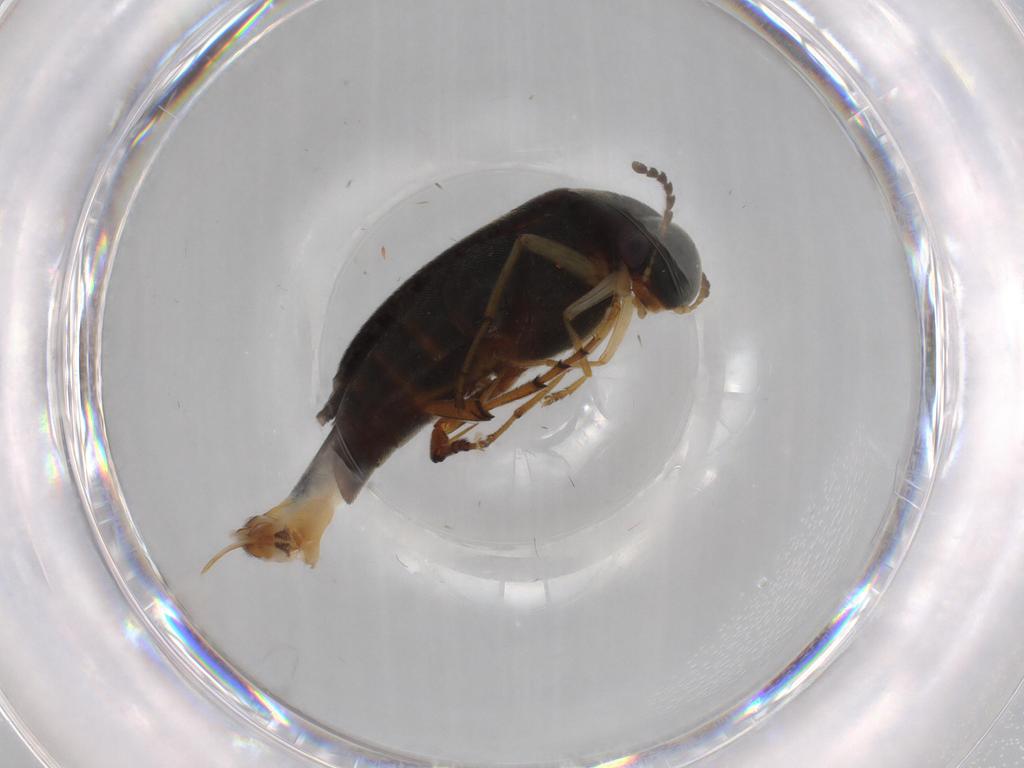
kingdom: Animalia
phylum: Arthropoda
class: Insecta
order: Coleoptera
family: Mordellidae
